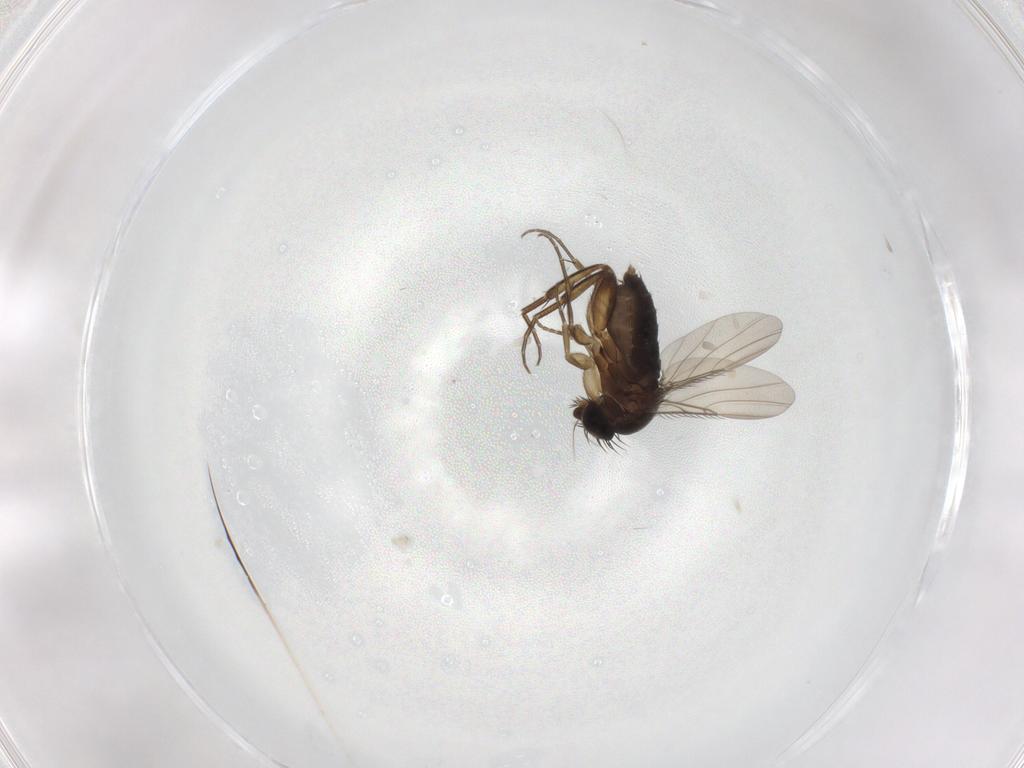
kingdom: Animalia
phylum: Arthropoda
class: Insecta
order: Diptera
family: Phoridae
